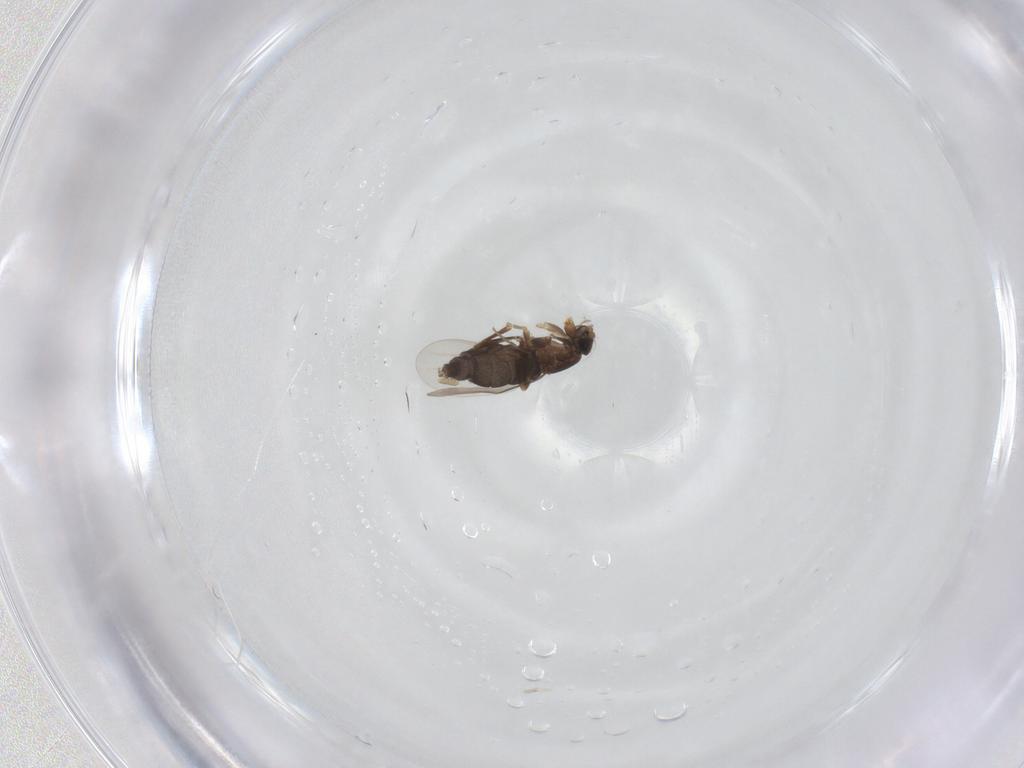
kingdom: Animalia
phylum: Arthropoda
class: Insecta
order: Diptera
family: Phoridae
